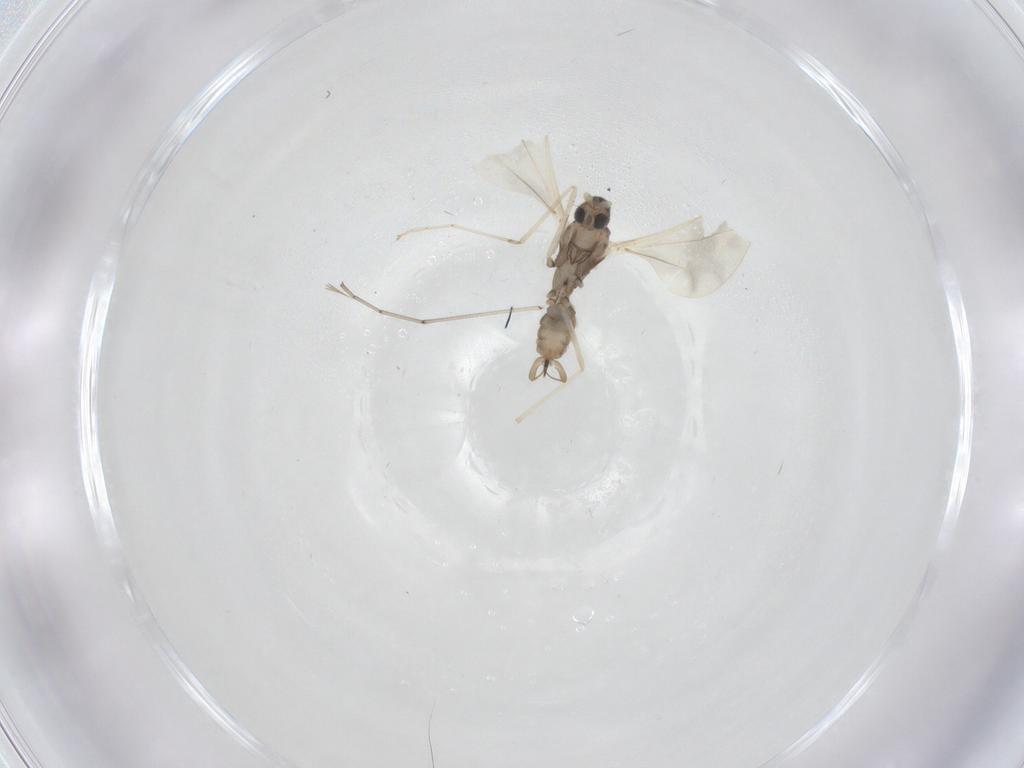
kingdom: Animalia
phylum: Arthropoda
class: Insecta
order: Diptera
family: Cecidomyiidae
